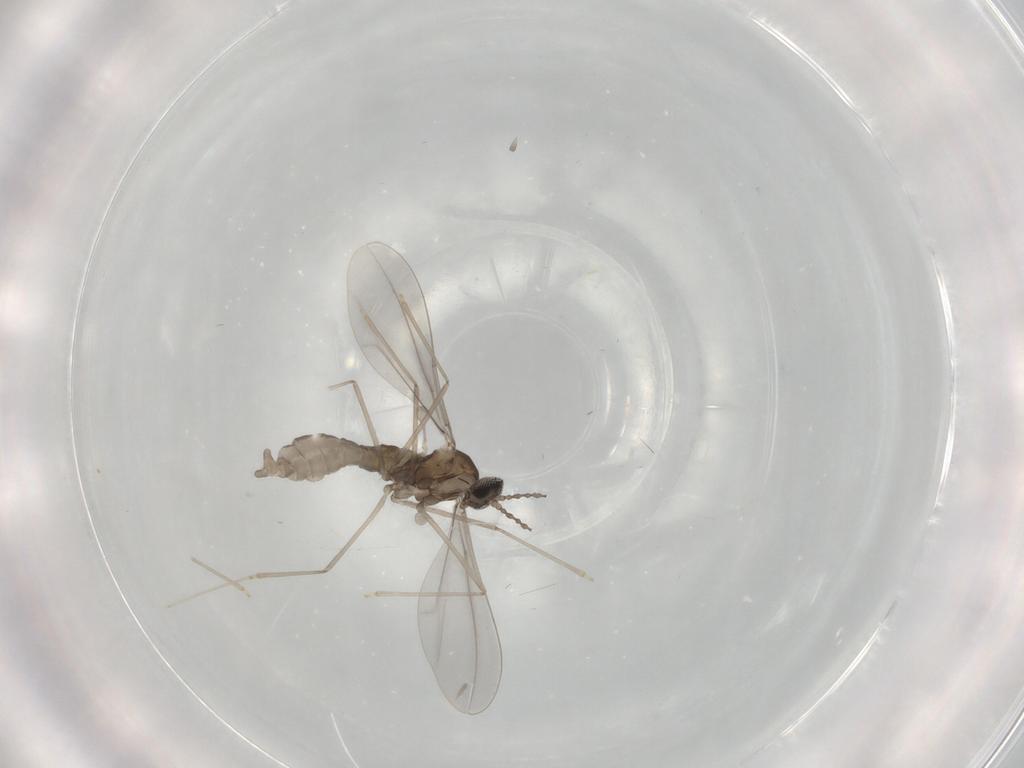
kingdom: Animalia
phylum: Arthropoda
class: Insecta
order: Diptera
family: Cecidomyiidae
